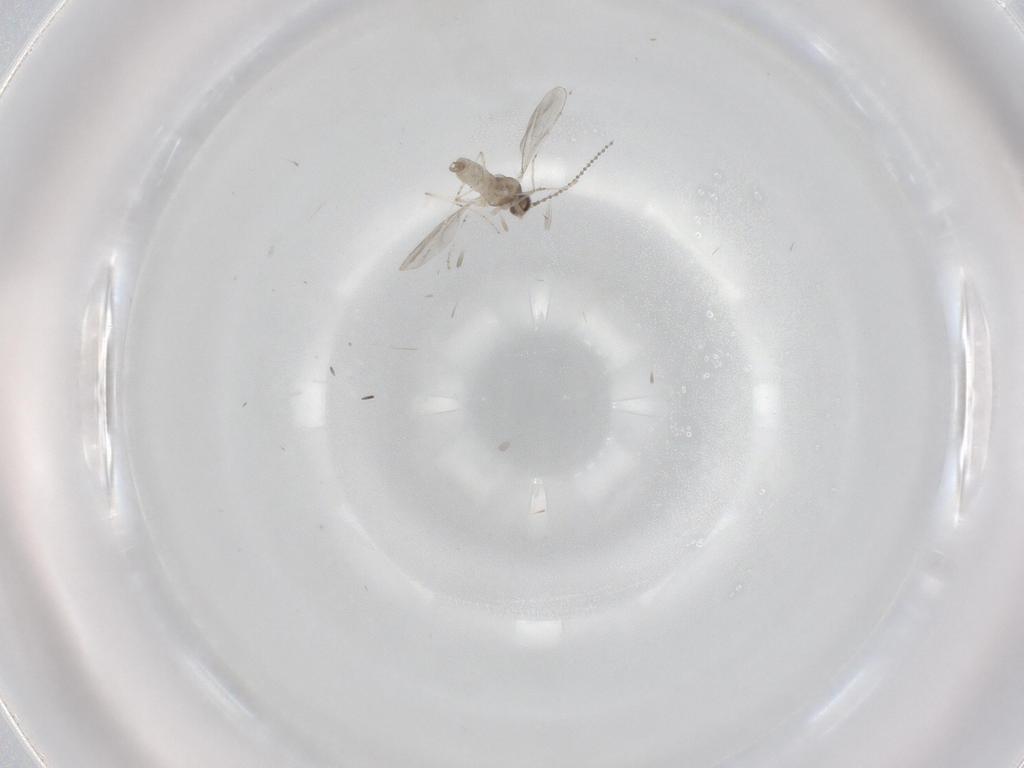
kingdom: Animalia
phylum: Arthropoda
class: Insecta
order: Diptera
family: Cecidomyiidae
